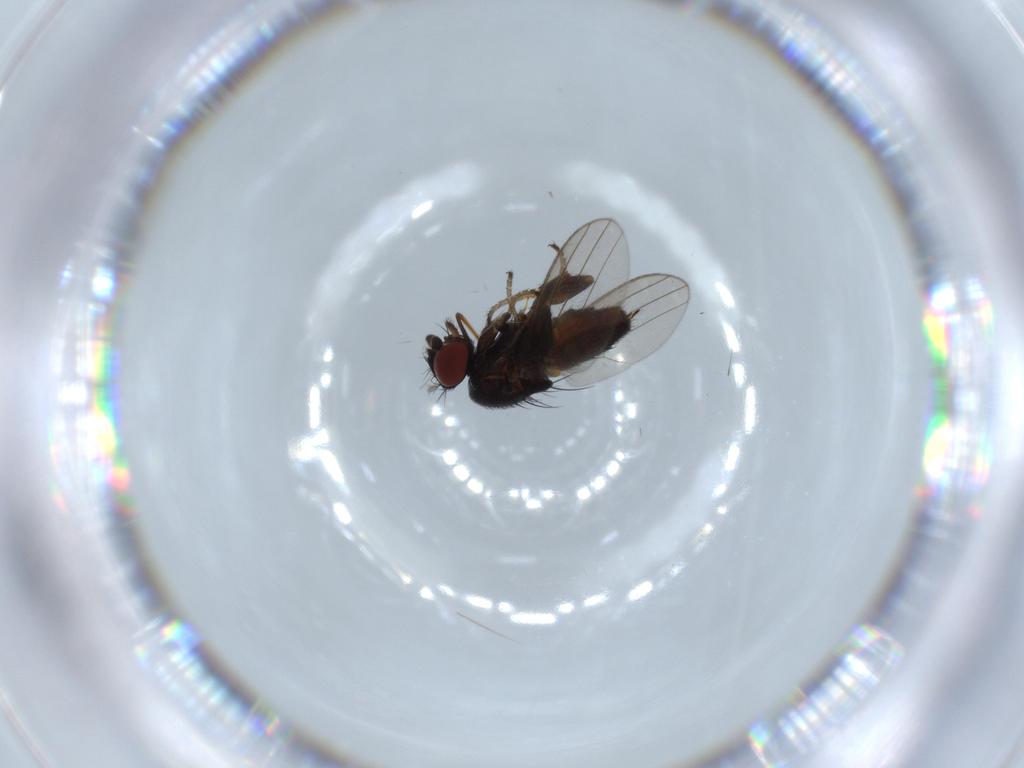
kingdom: Animalia
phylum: Arthropoda
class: Insecta
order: Diptera
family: Milichiidae
